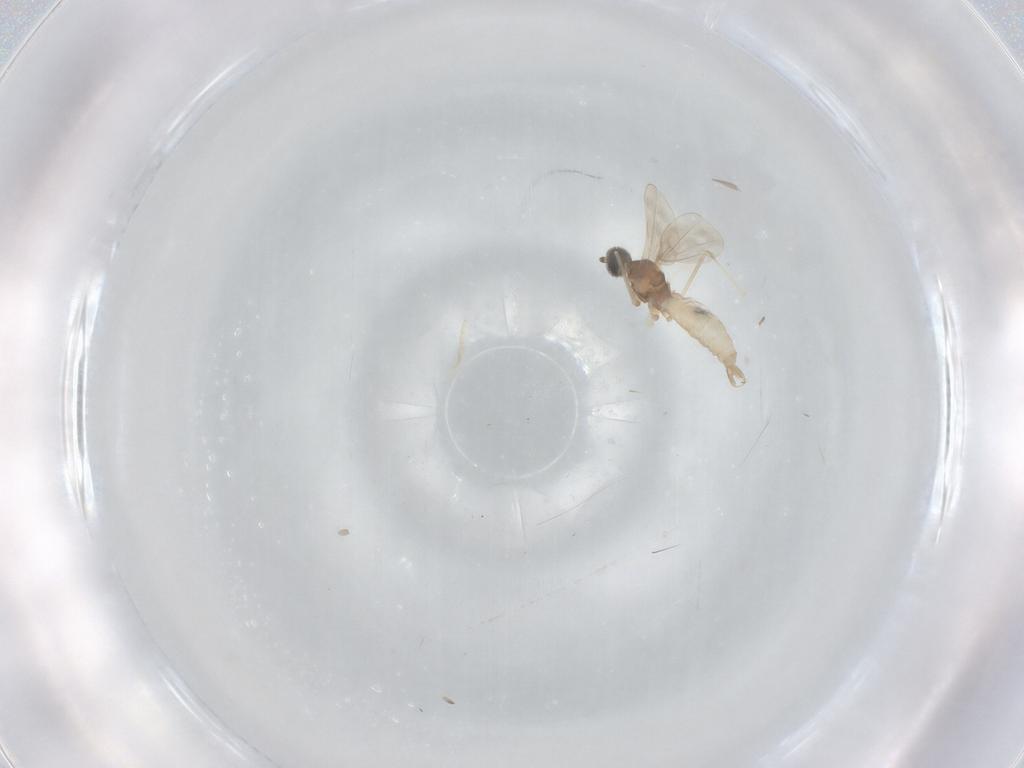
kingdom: Animalia
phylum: Arthropoda
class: Insecta
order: Diptera
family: Cecidomyiidae
